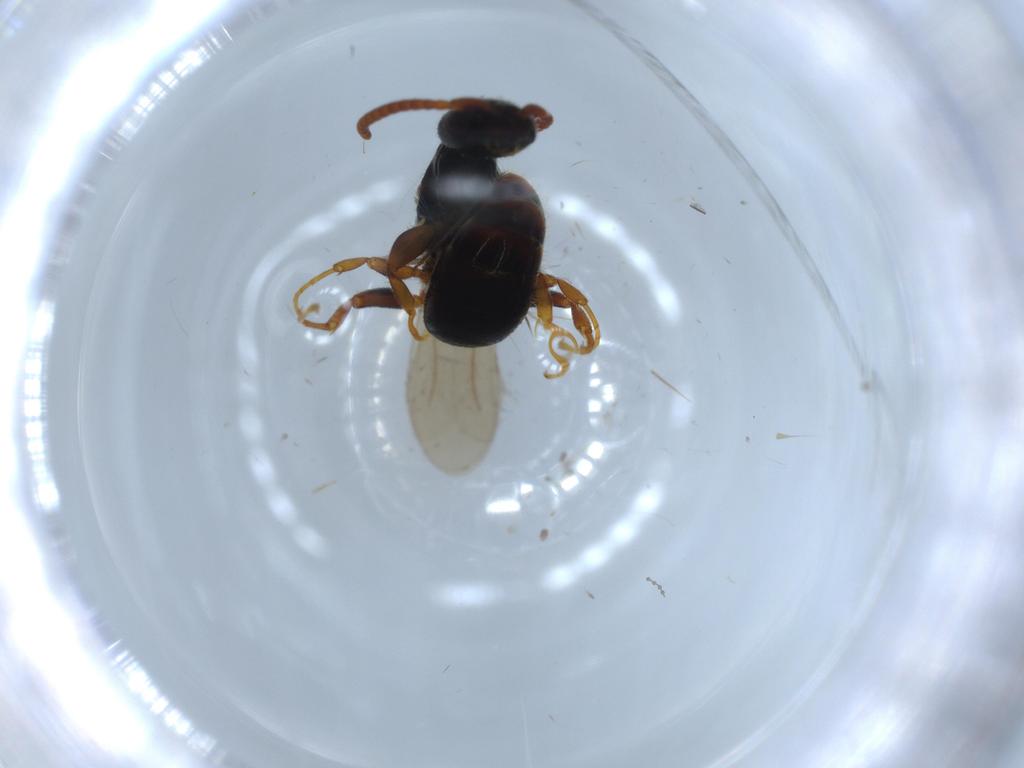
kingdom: Animalia
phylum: Arthropoda
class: Insecta
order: Hymenoptera
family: Bethylidae
